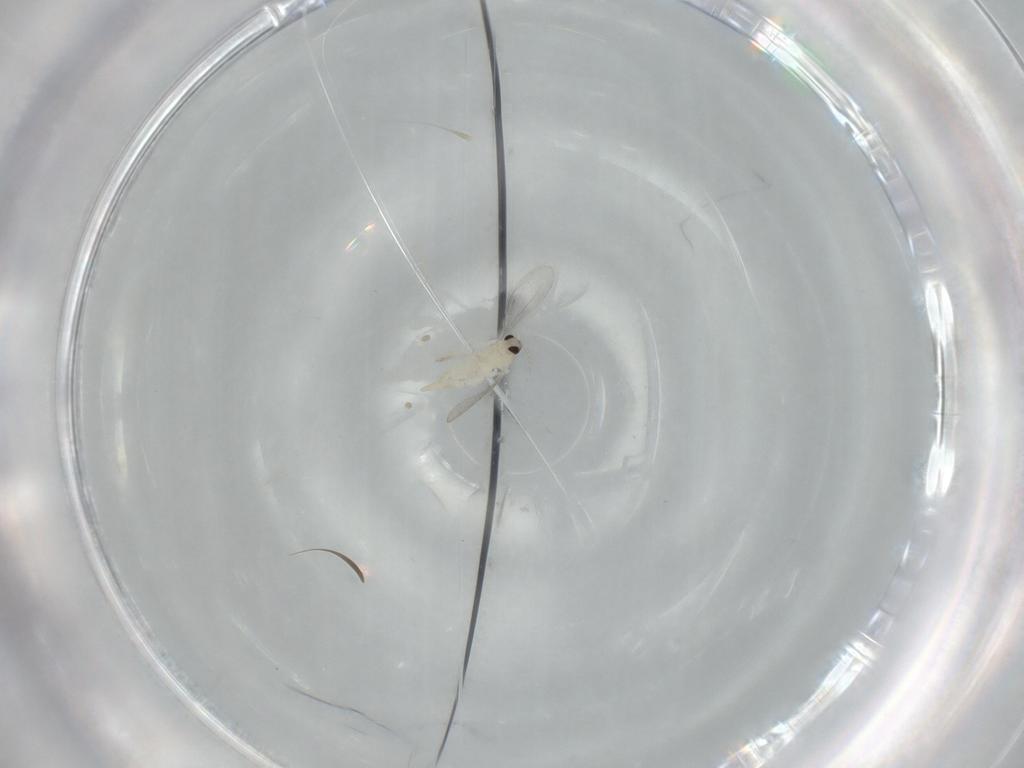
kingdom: Animalia
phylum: Arthropoda
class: Insecta
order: Diptera
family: Cecidomyiidae
